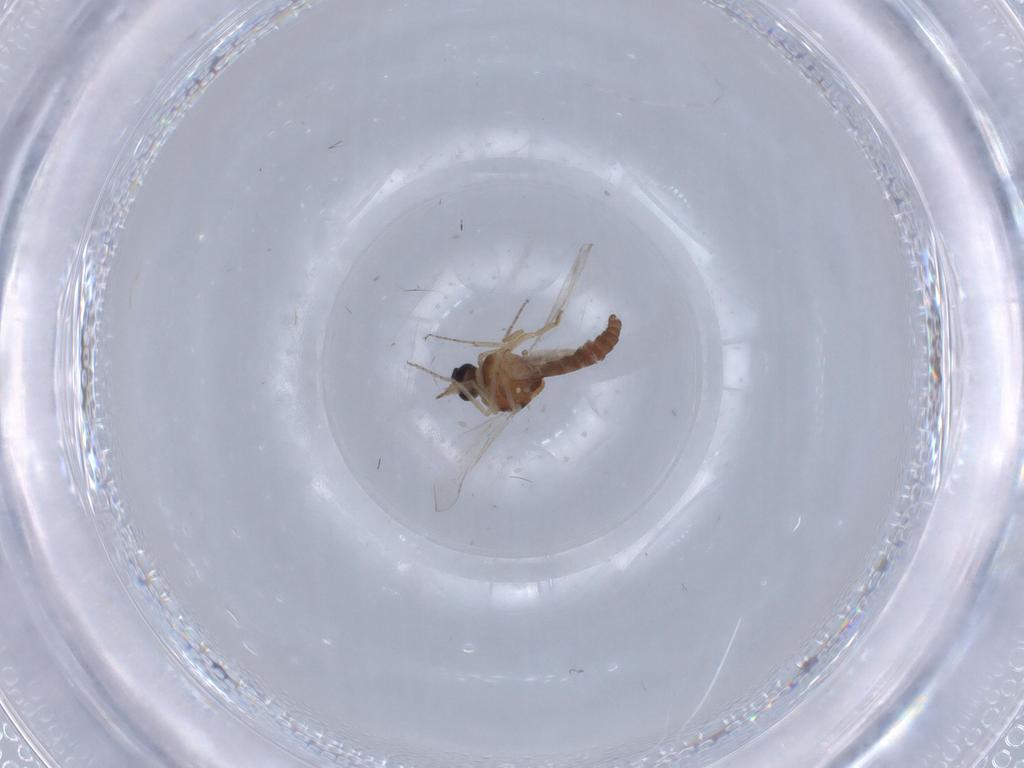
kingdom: Animalia
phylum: Arthropoda
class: Insecta
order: Diptera
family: Ceratopogonidae
